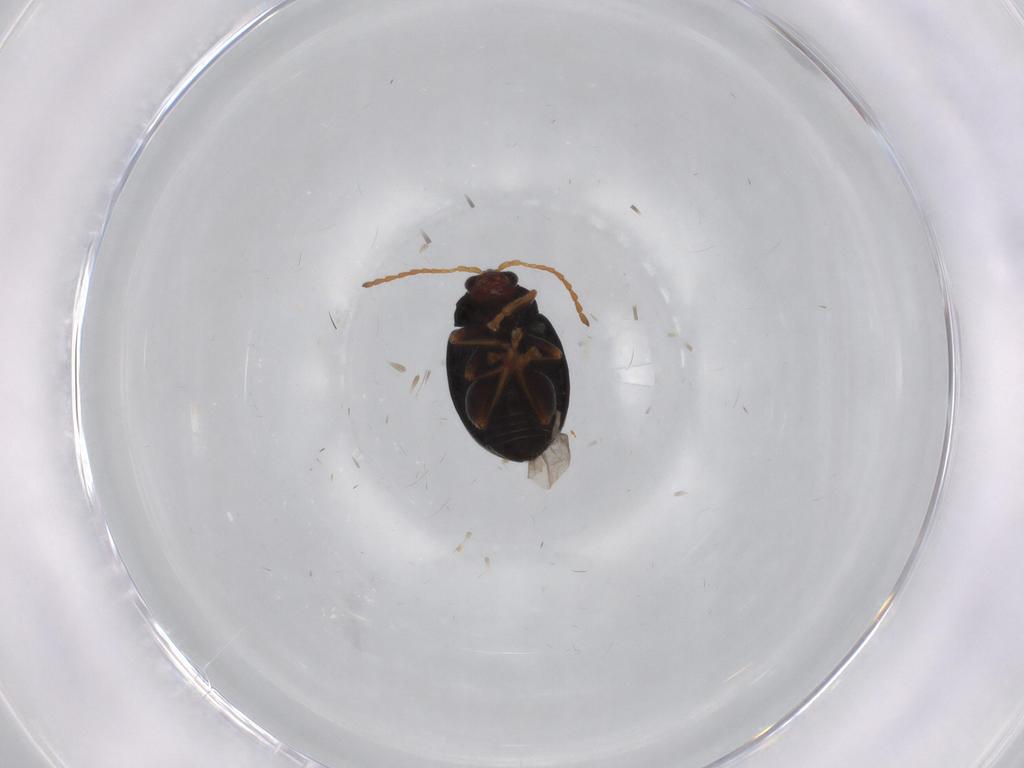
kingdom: Animalia
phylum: Arthropoda
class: Insecta
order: Coleoptera
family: Chrysomelidae
